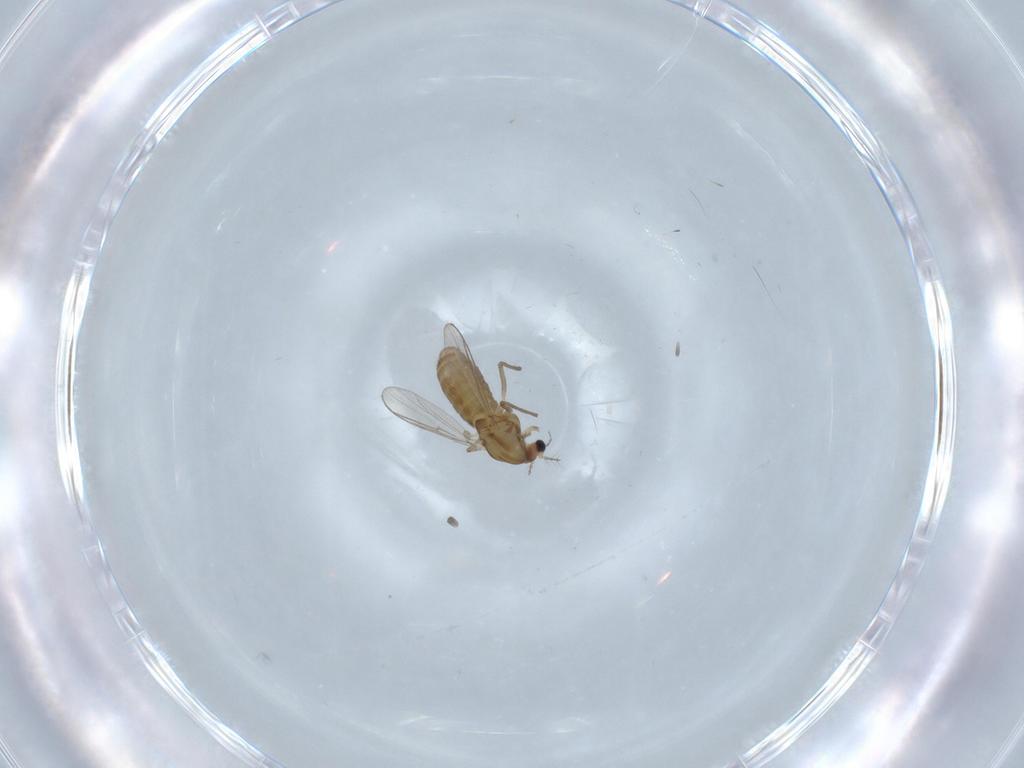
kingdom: Animalia
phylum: Arthropoda
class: Insecta
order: Diptera
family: Chironomidae
